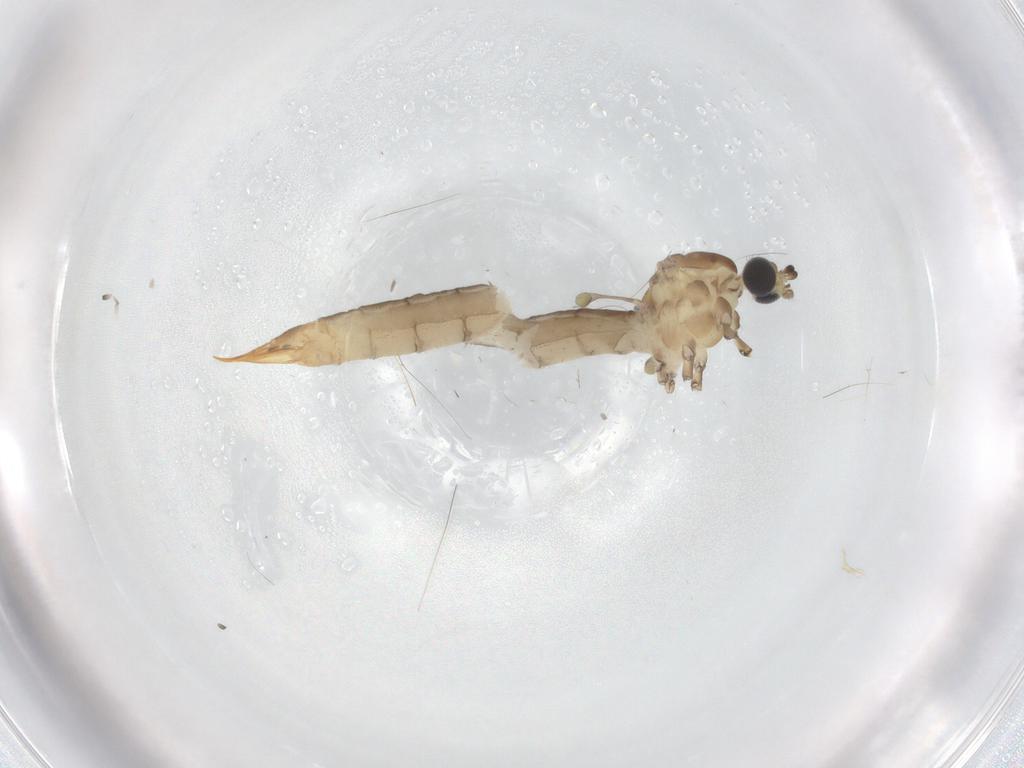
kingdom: Animalia
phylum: Arthropoda
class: Insecta
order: Diptera
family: Limoniidae
